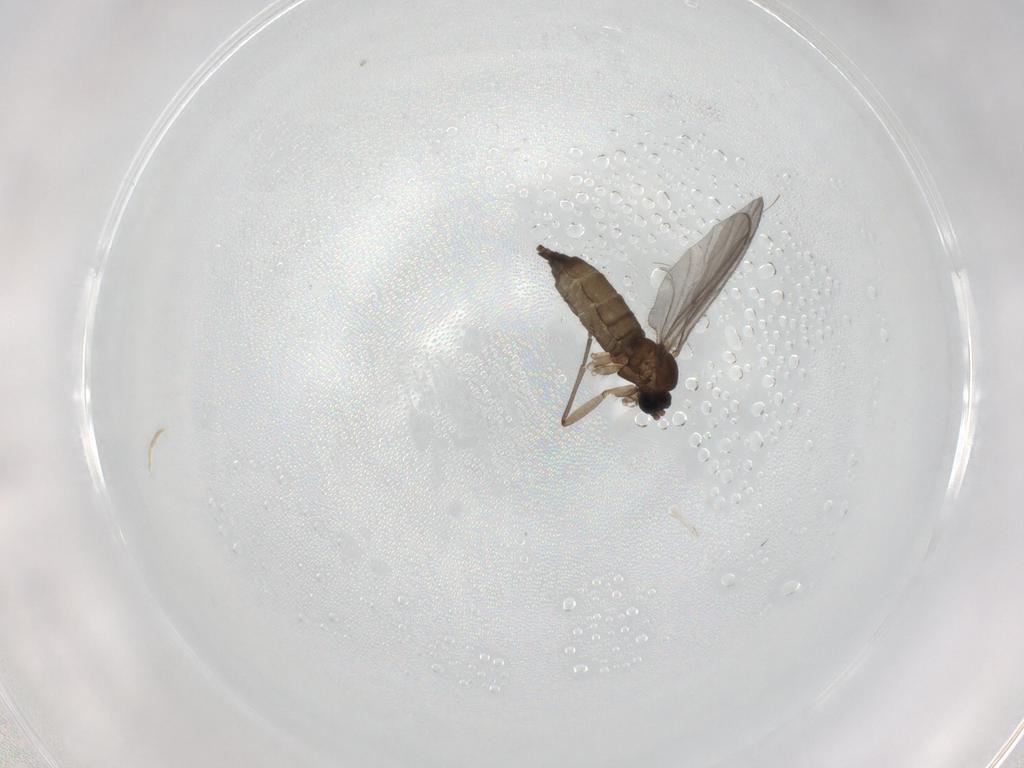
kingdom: Animalia
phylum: Arthropoda
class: Insecta
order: Diptera
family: Sciaridae
